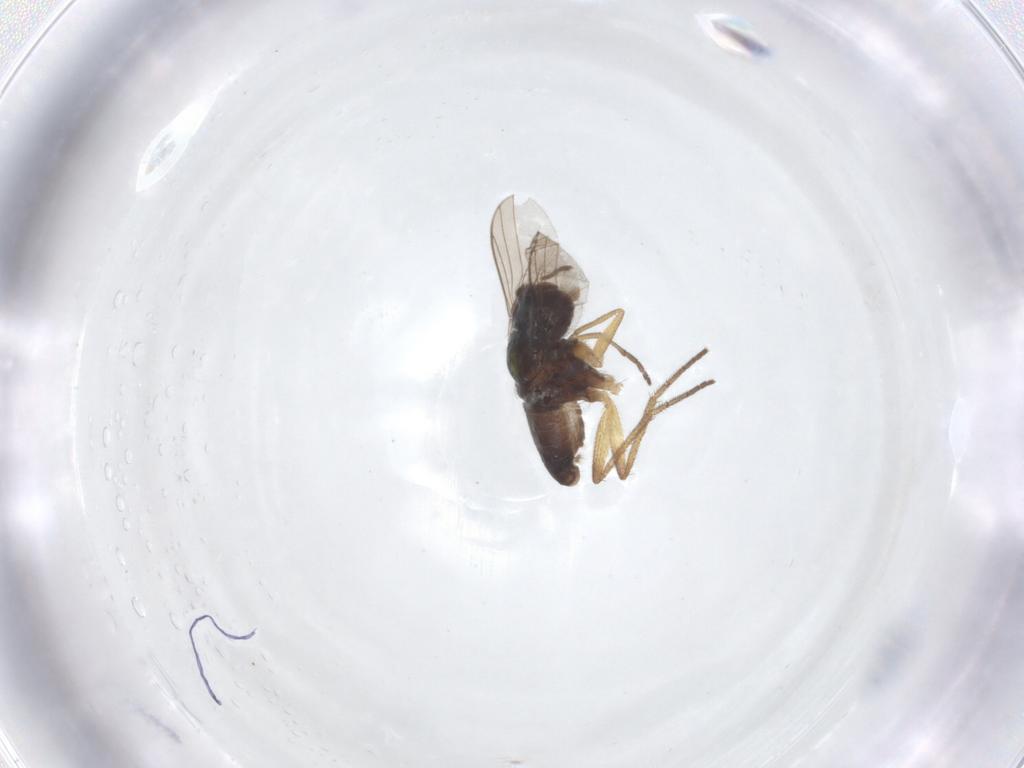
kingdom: Animalia
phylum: Arthropoda
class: Insecta
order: Diptera
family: Dolichopodidae
